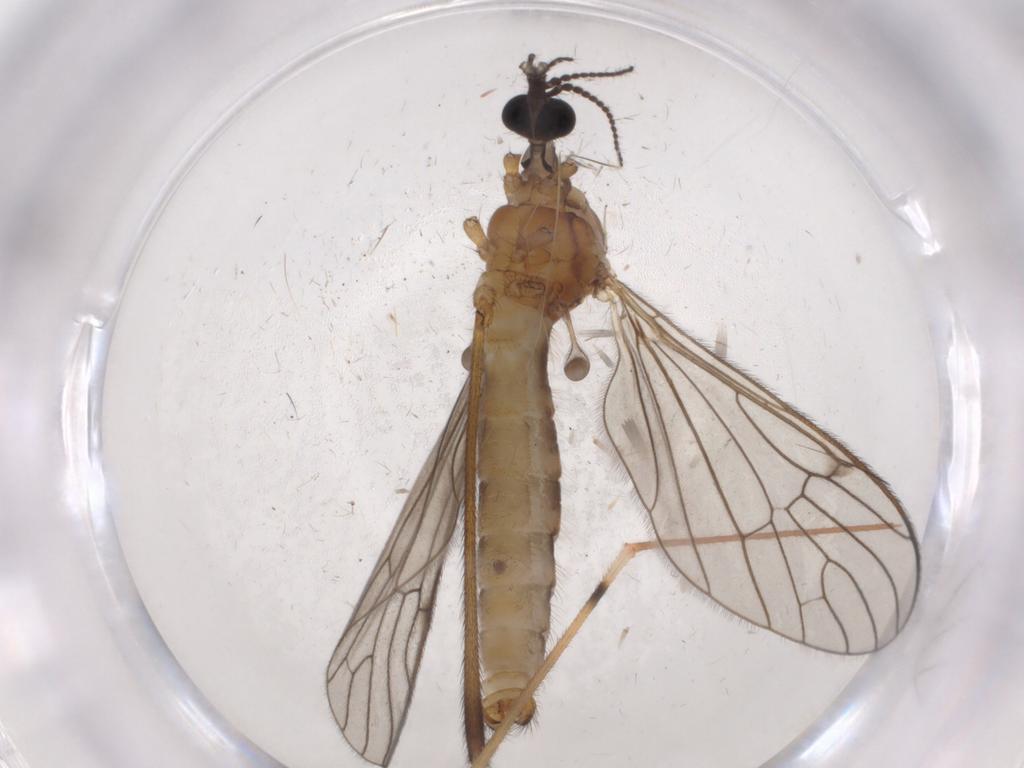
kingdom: Animalia
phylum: Arthropoda
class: Insecta
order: Diptera
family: Limoniidae
